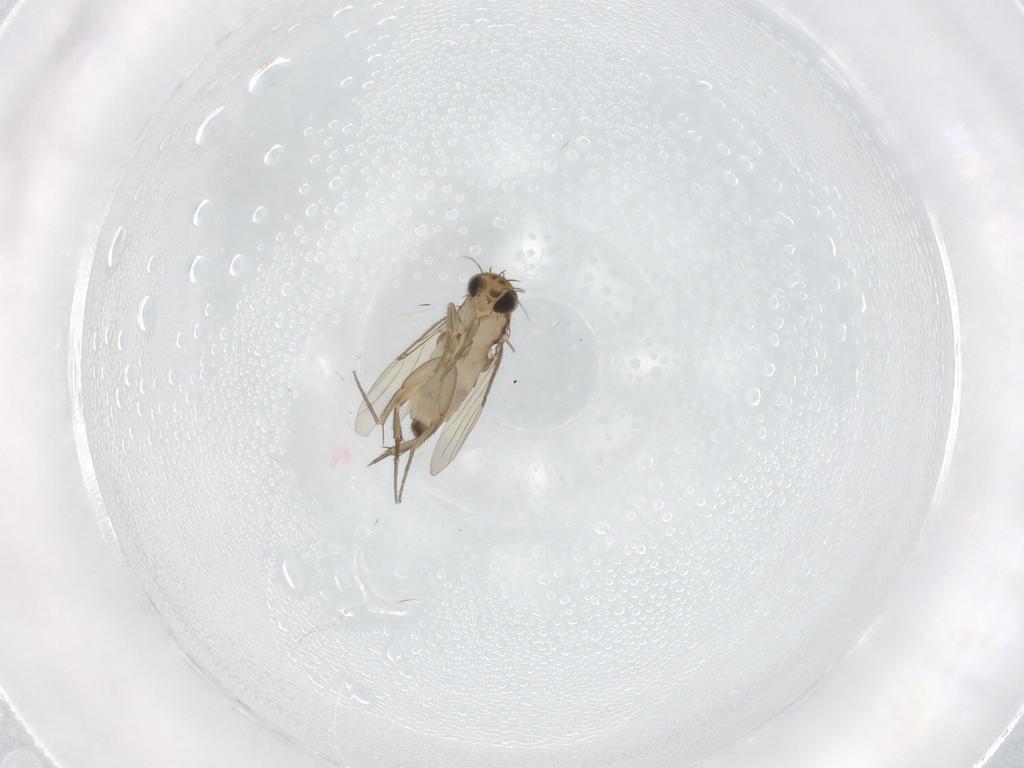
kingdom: Animalia
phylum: Arthropoda
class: Insecta
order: Diptera
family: Phoridae
